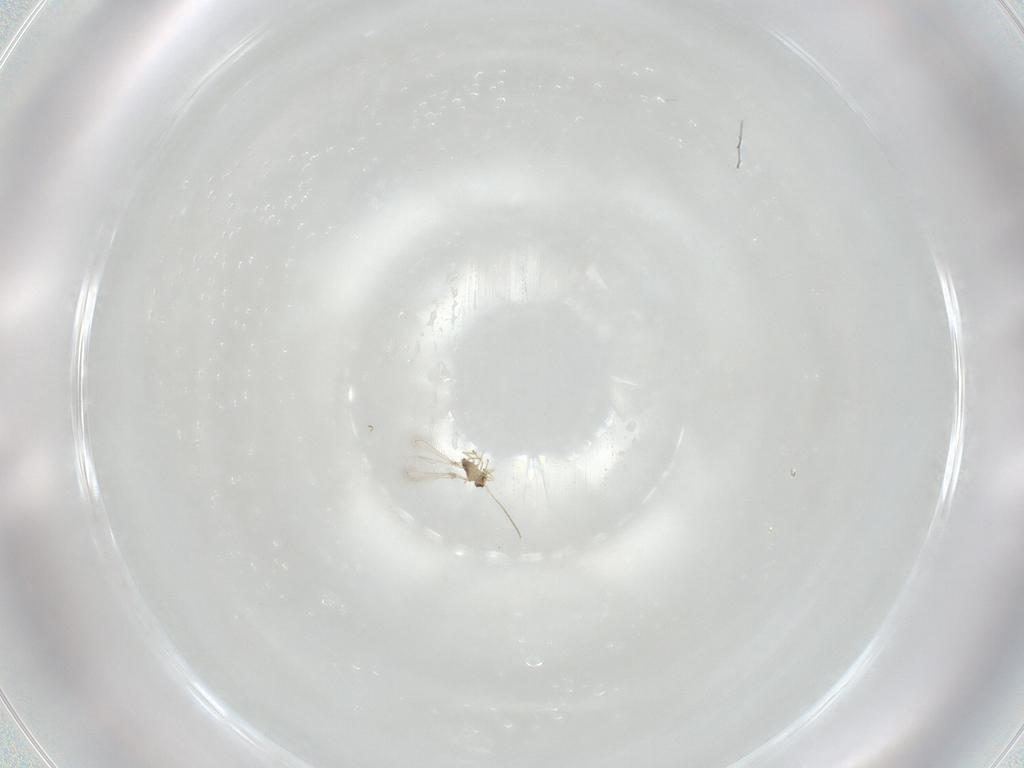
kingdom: Animalia
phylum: Arthropoda
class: Insecta
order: Hymenoptera
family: Mymaridae
